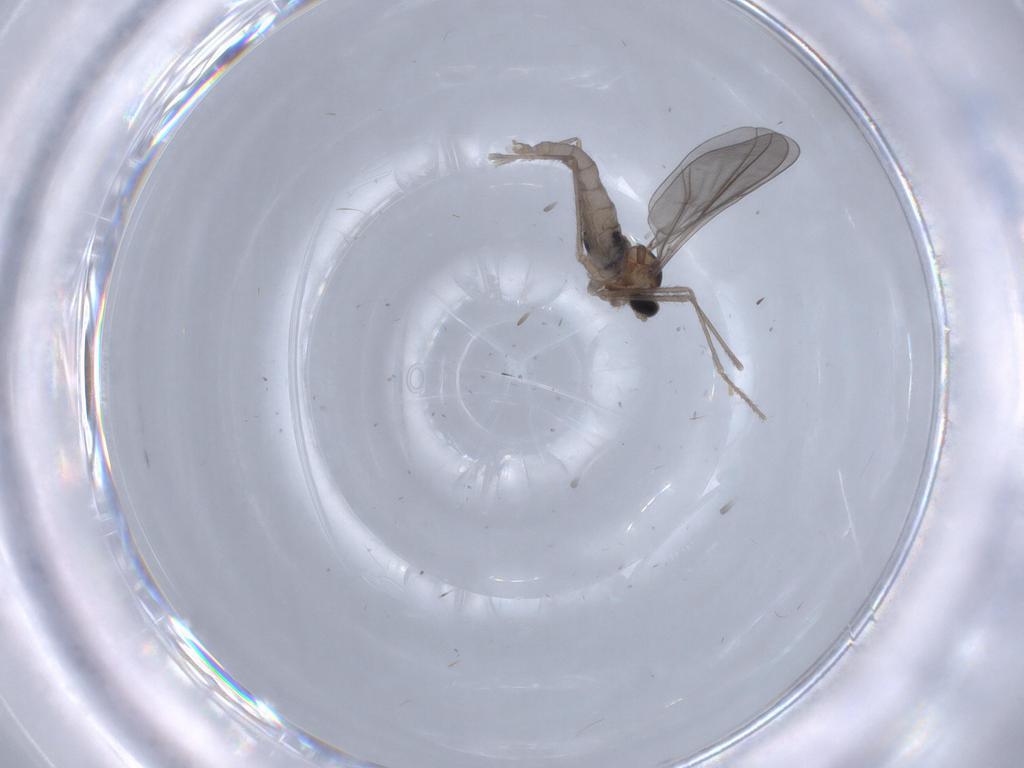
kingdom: Animalia
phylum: Arthropoda
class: Insecta
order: Diptera
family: Cecidomyiidae
